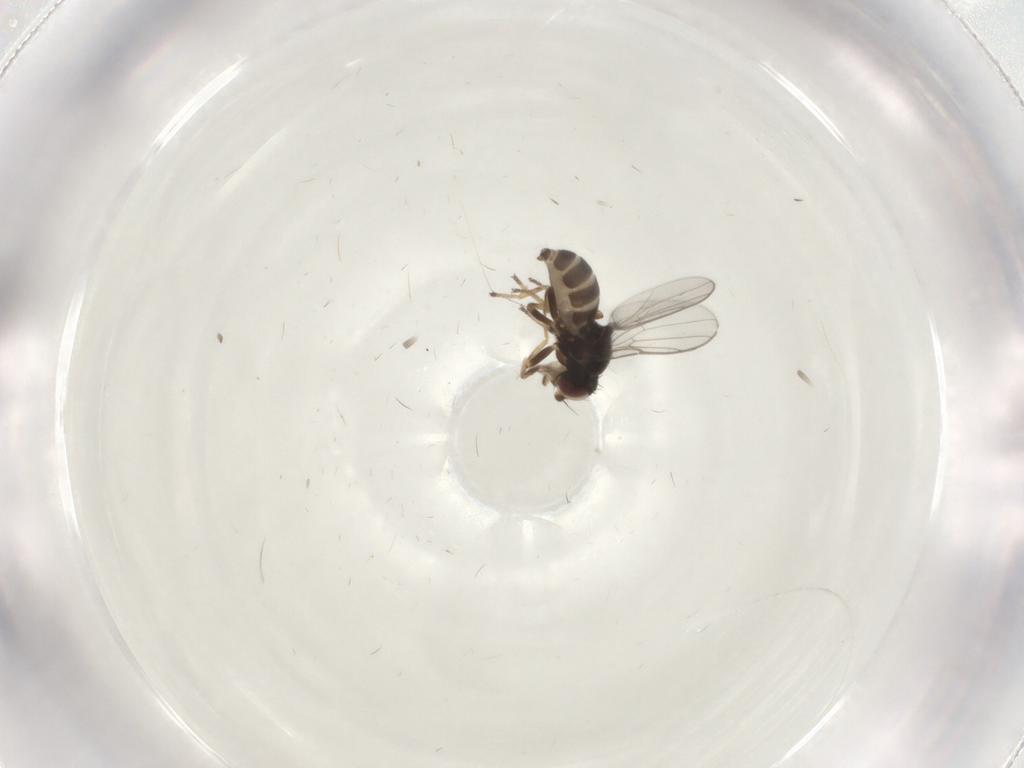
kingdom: Animalia
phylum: Arthropoda
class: Insecta
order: Diptera
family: Chloropidae
